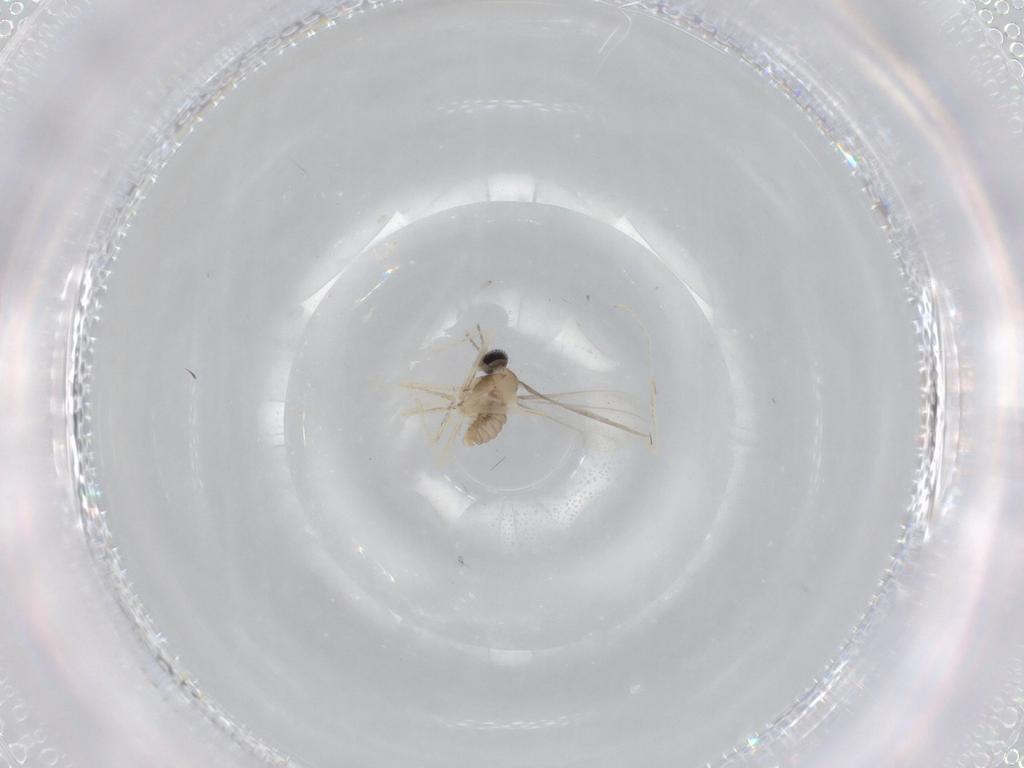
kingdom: Animalia
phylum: Arthropoda
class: Insecta
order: Diptera
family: Cecidomyiidae
